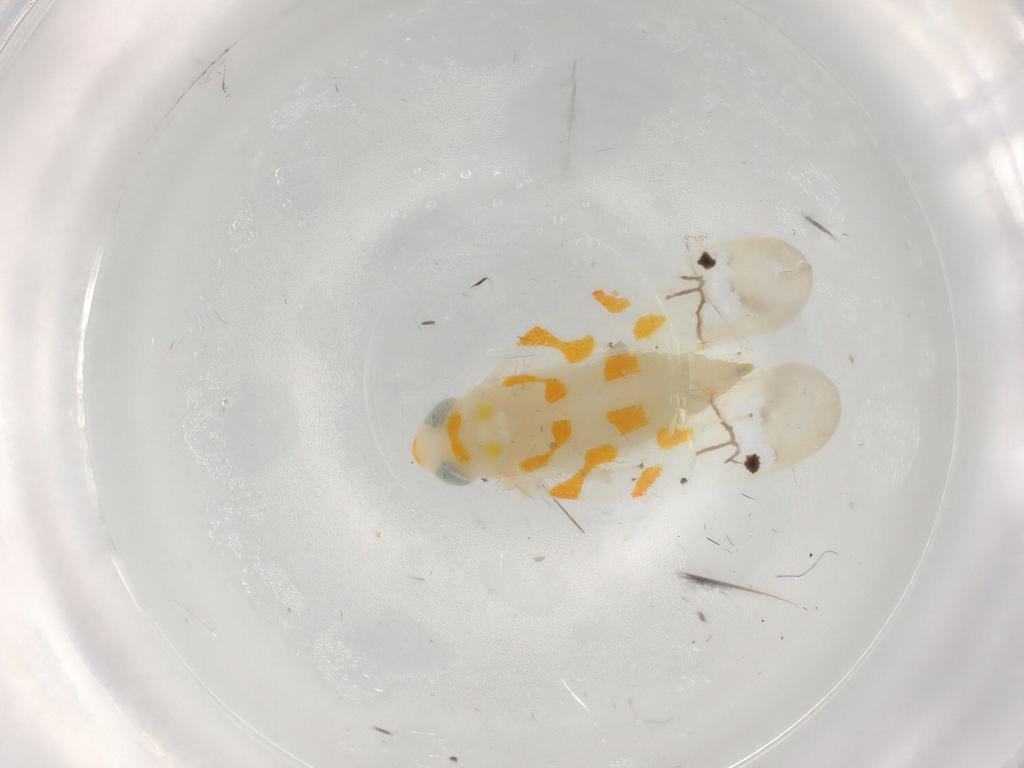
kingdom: Animalia
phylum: Arthropoda
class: Insecta
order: Hemiptera
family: Cicadellidae
